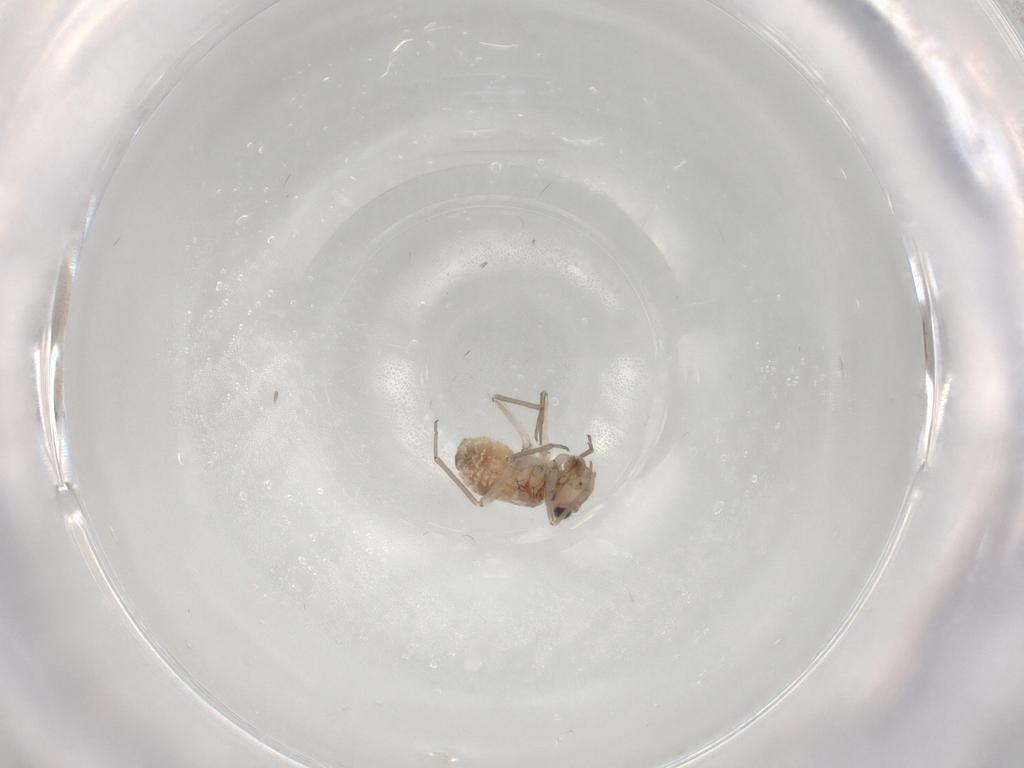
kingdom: Animalia
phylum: Arthropoda
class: Insecta
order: Psocodea
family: Lachesillidae
